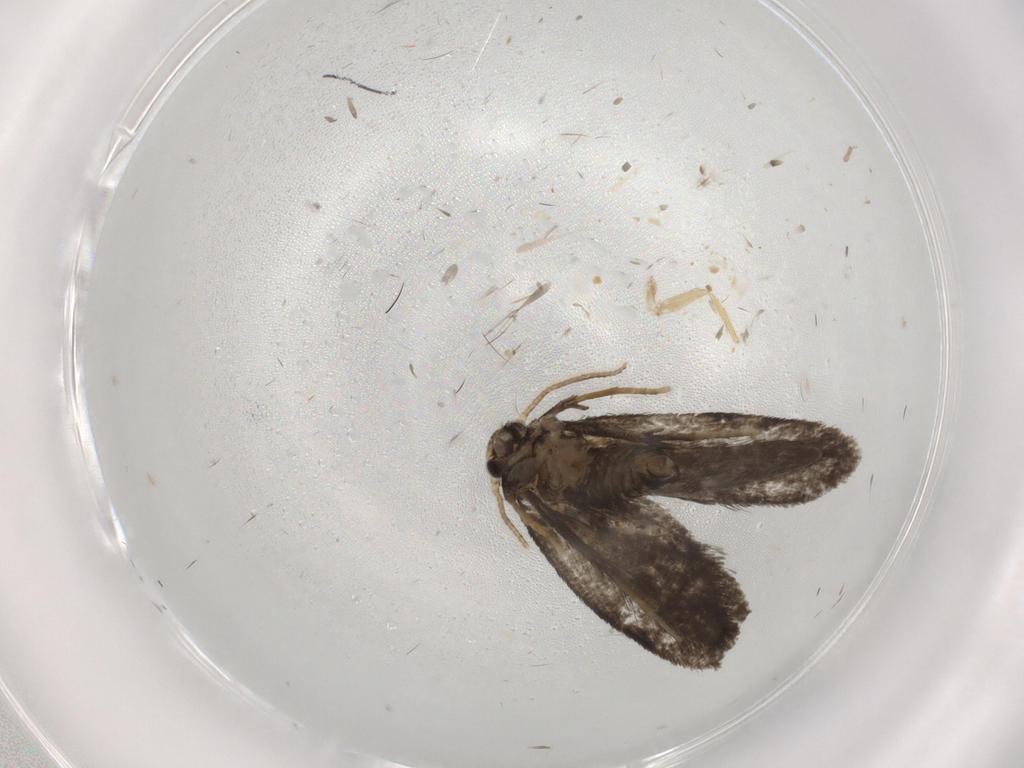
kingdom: Animalia
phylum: Arthropoda
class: Insecta
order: Lepidoptera
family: Psychidae
